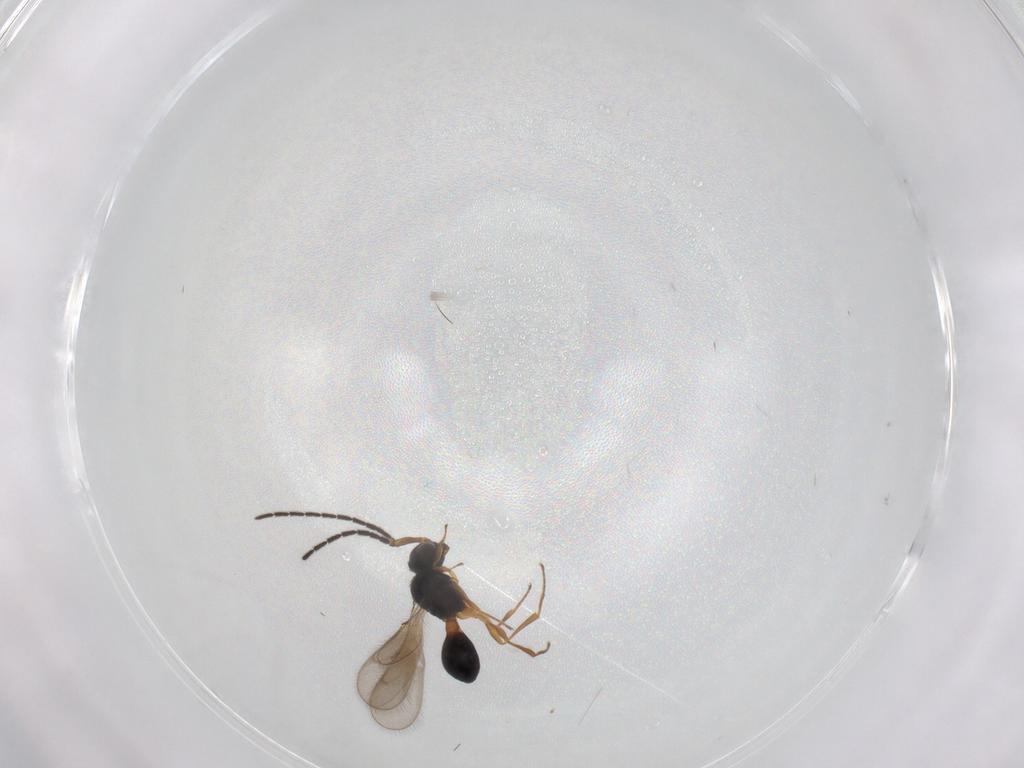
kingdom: Animalia
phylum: Arthropoda
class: Insecta
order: Hymenoptera
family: Scelionidae
